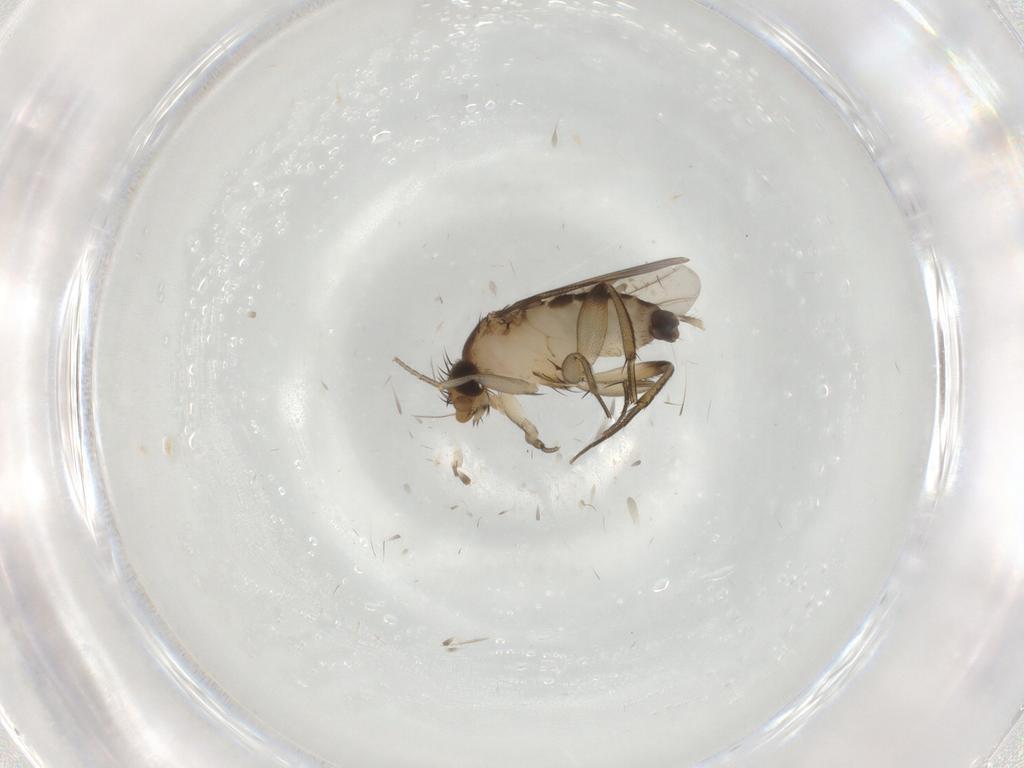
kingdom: Animalia
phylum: Arthropoda
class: Insecta
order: Diptera
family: Phoridae
